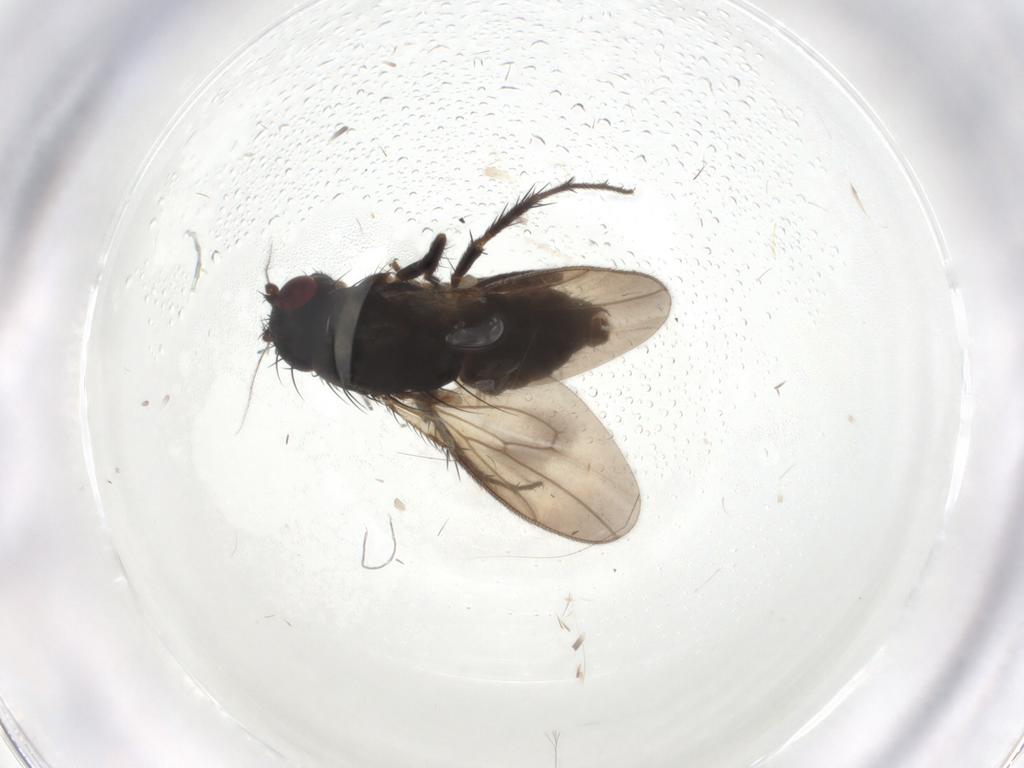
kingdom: Animalia
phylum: Arthropoda
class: Insecta
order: Diptera
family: Sphaeroceridae
